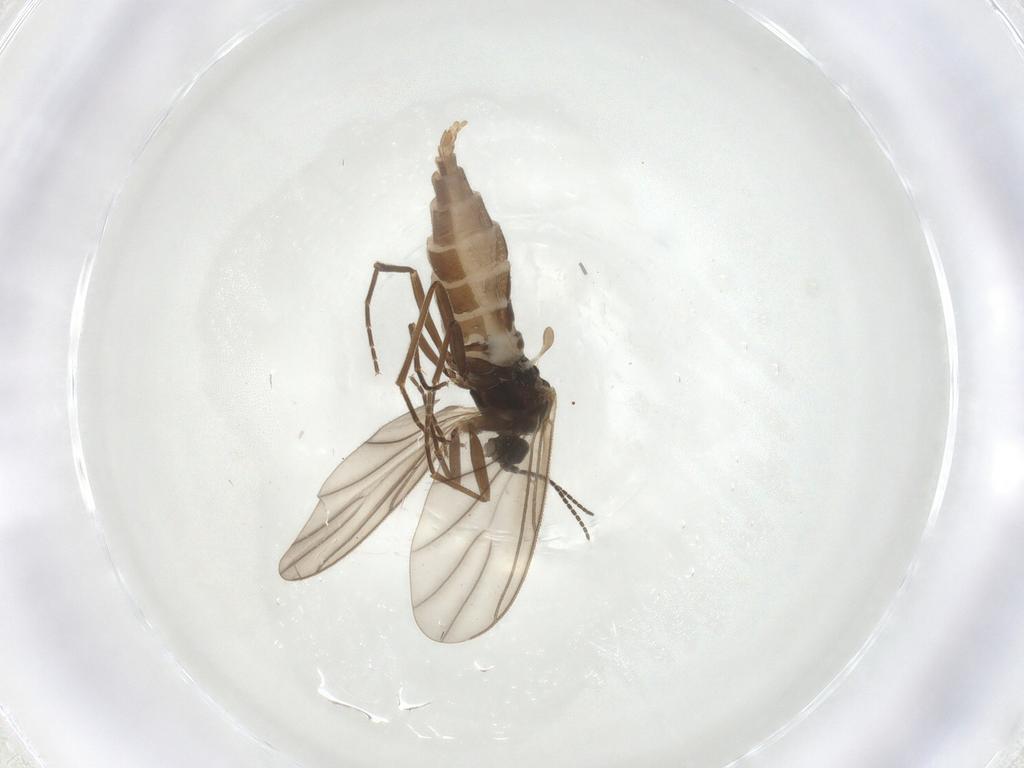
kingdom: Animalia
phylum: Arthropoda
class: Insecta
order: Diptera
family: Sciaridae
